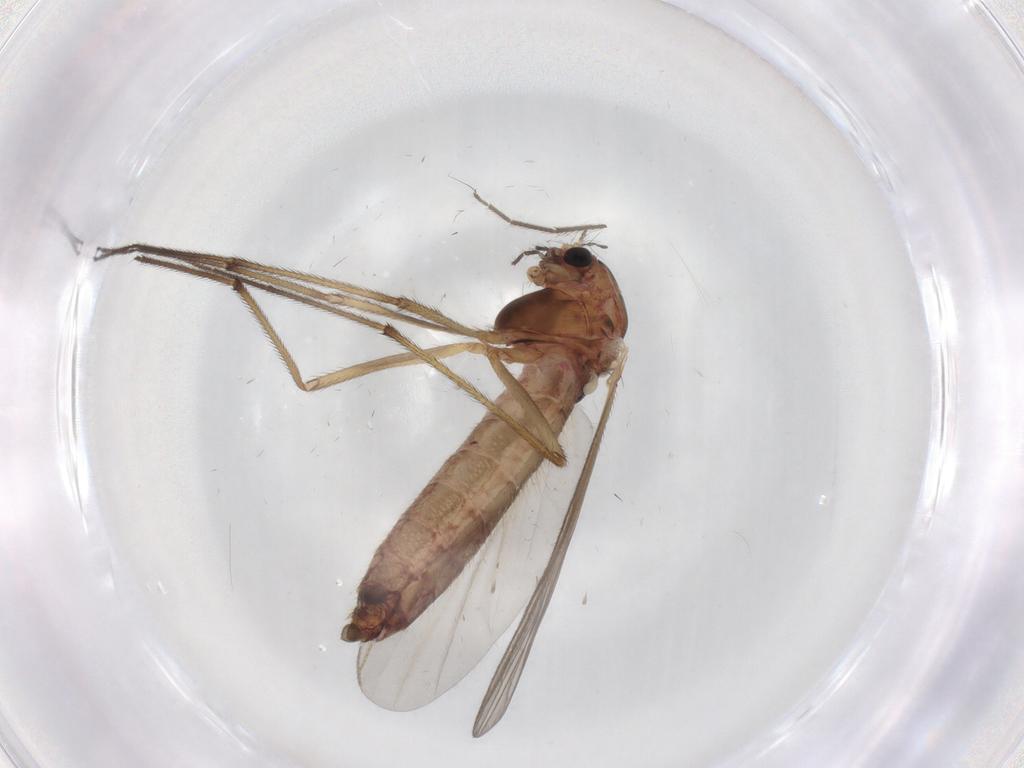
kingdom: Animalia
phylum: Arthropoda
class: Insecta
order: Diptera
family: Chironomidae
